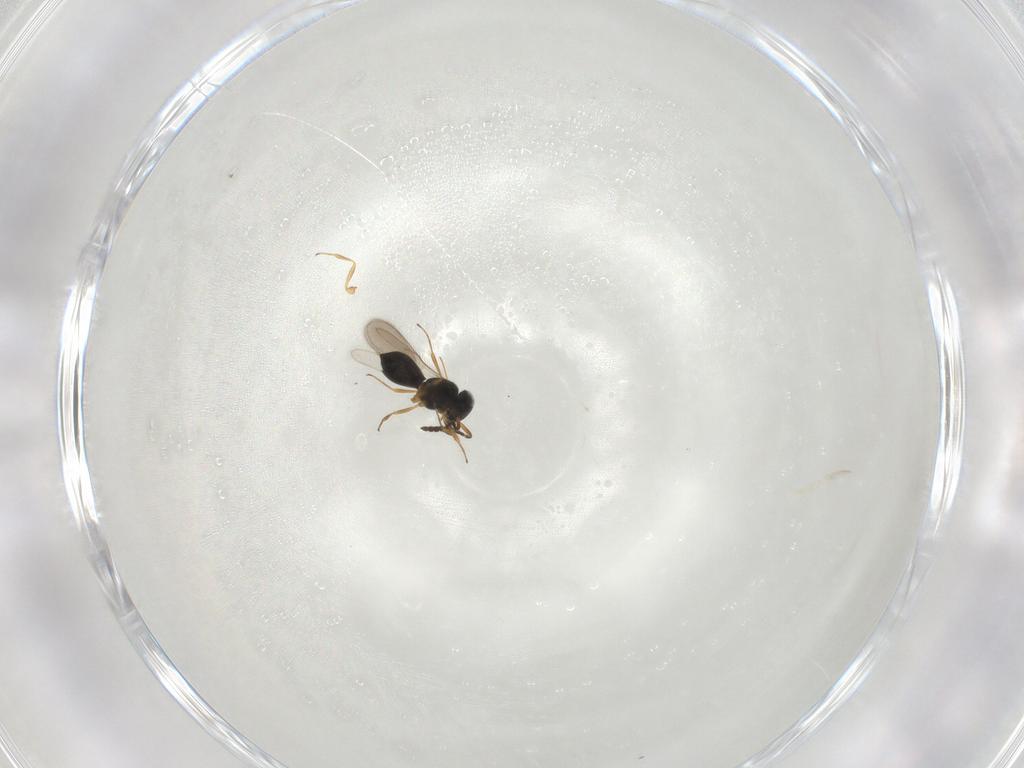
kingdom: Animalia
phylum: Arthropoda
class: Insecta
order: Hymenoptera
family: Scelionidae
